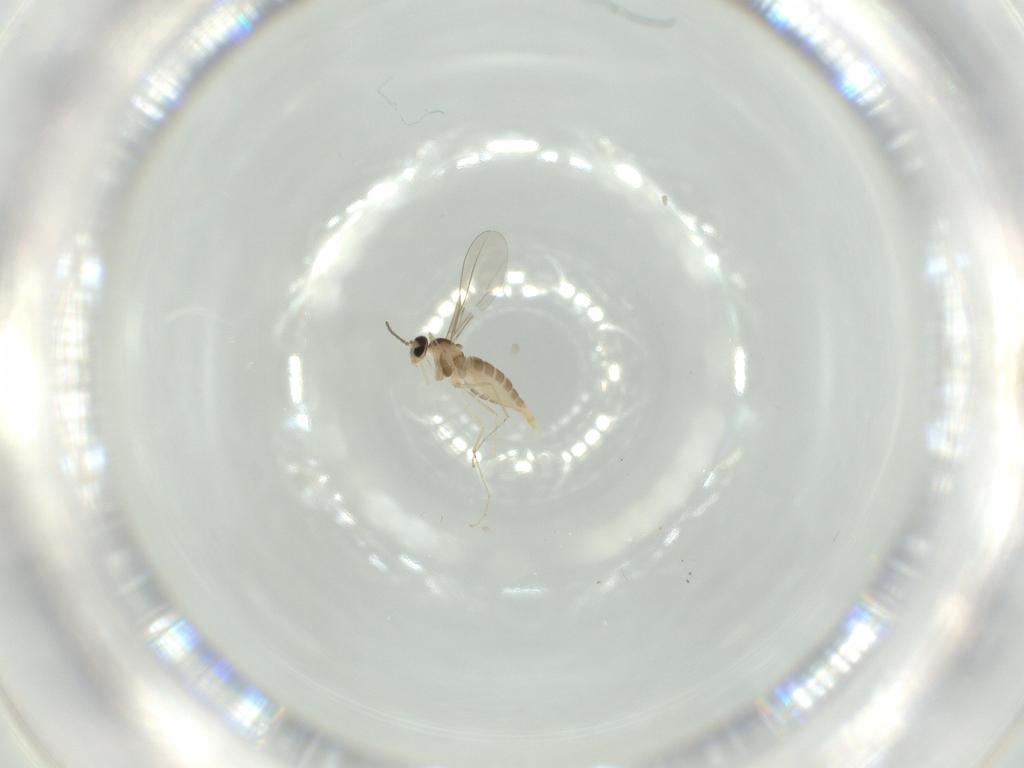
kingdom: Animalia
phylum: Arthropoda
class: Insecta
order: Diptera
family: Cecidomyiidae
